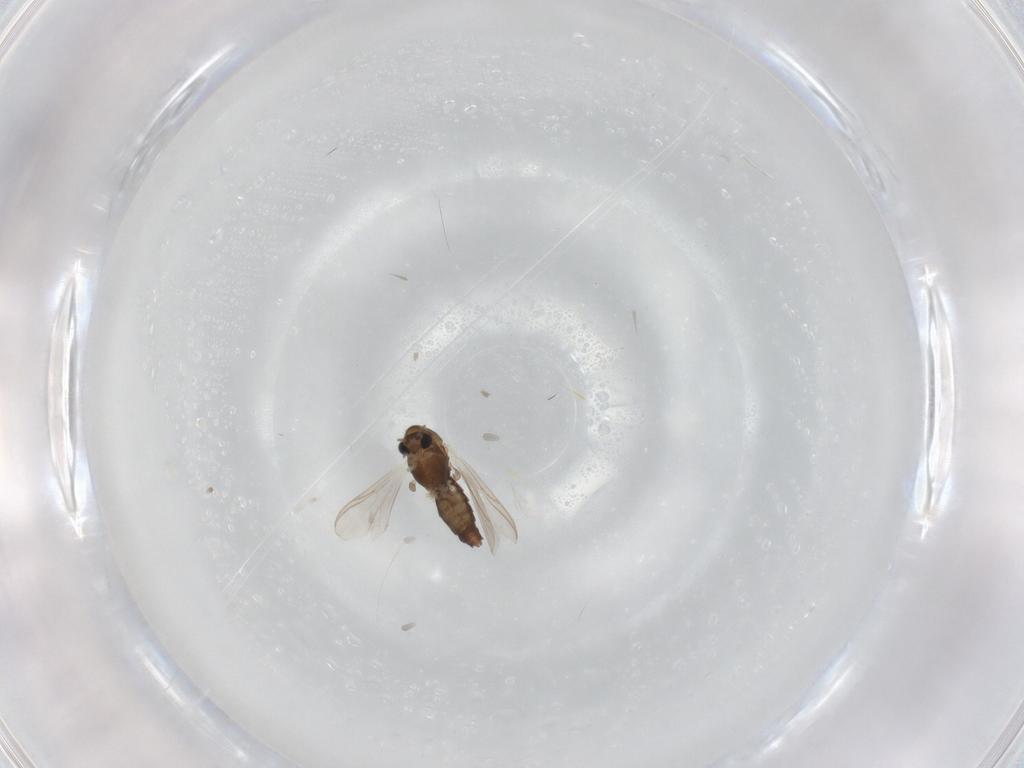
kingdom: Animalia
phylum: Arthropoda
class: Insecta
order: Diptera
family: Chironomidae
